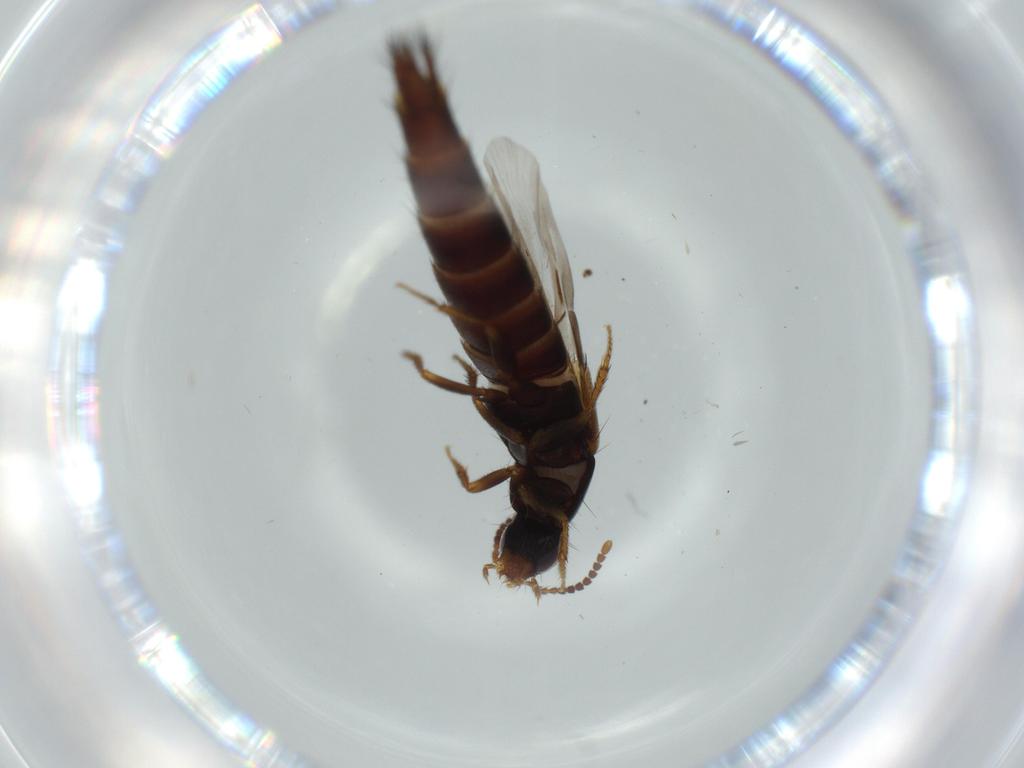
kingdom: Animalia
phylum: Arthropoda
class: Insecta
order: Coleoptera
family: Staphylinidae
